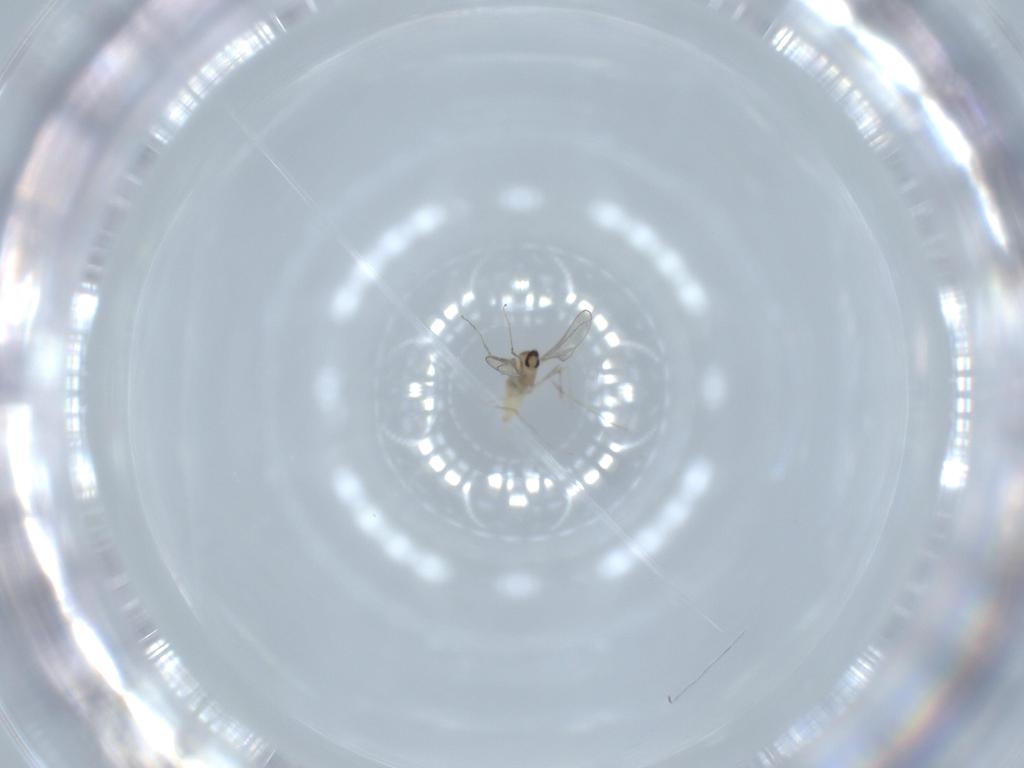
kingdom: Animalia
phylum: Arthropoda
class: Insecta
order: Diptera
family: Cecidomyiidae
